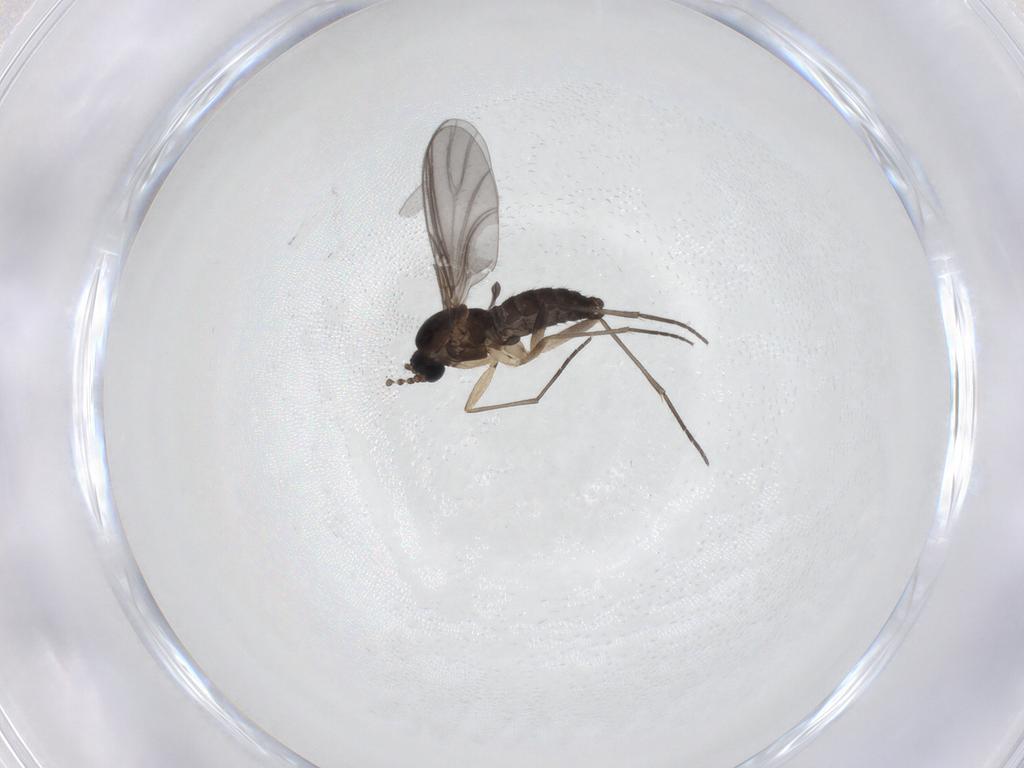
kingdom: Animalia
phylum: Arthropoda
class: Insecta
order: Diptera
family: Sciaridae
